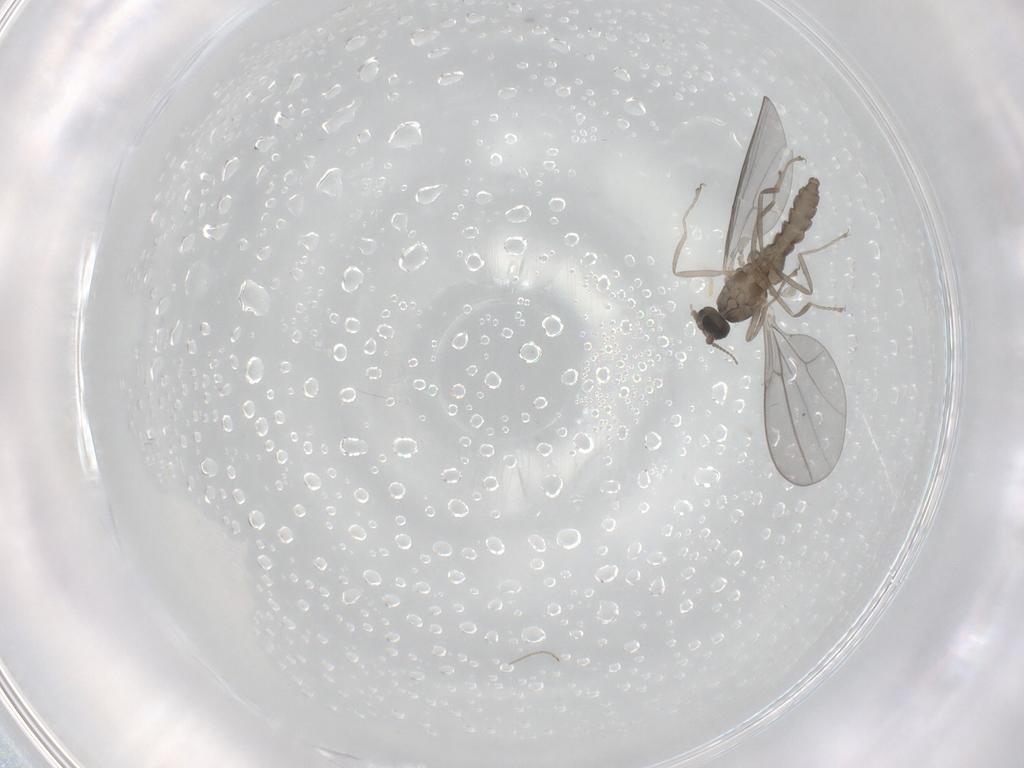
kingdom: Animalia
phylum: Arthropoda
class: Insecta
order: Diptera
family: Cecidomyiidae
